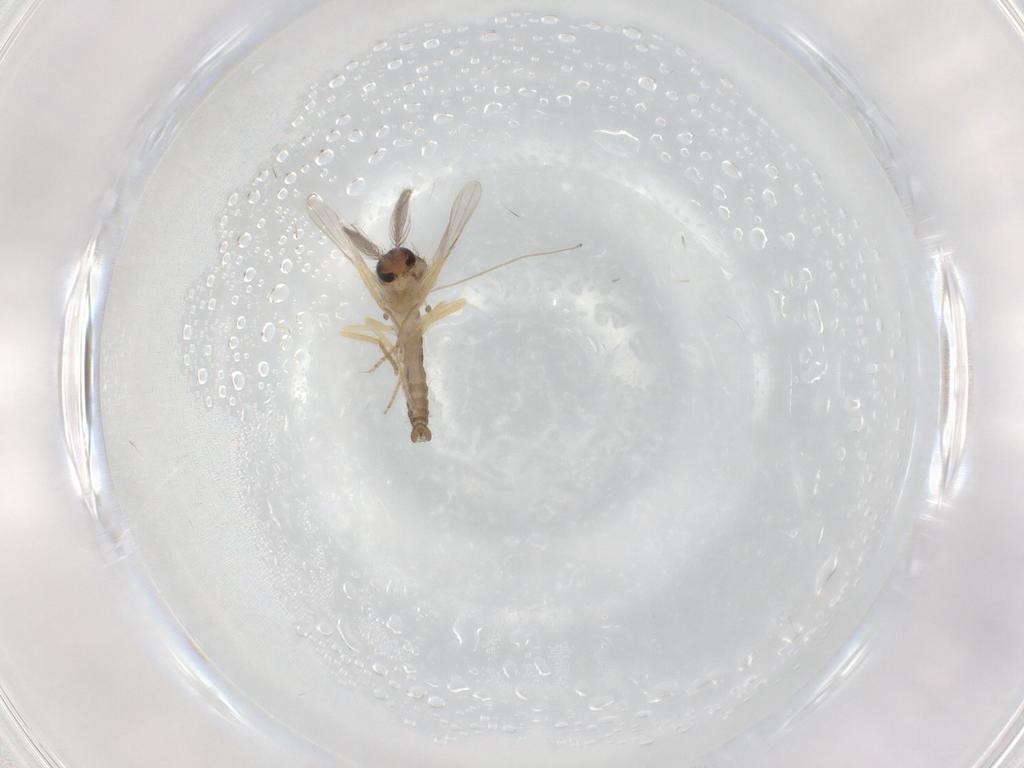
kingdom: Animalia
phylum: Arthropoda
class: Insecta
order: Diptera
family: Ceratopogonidae
